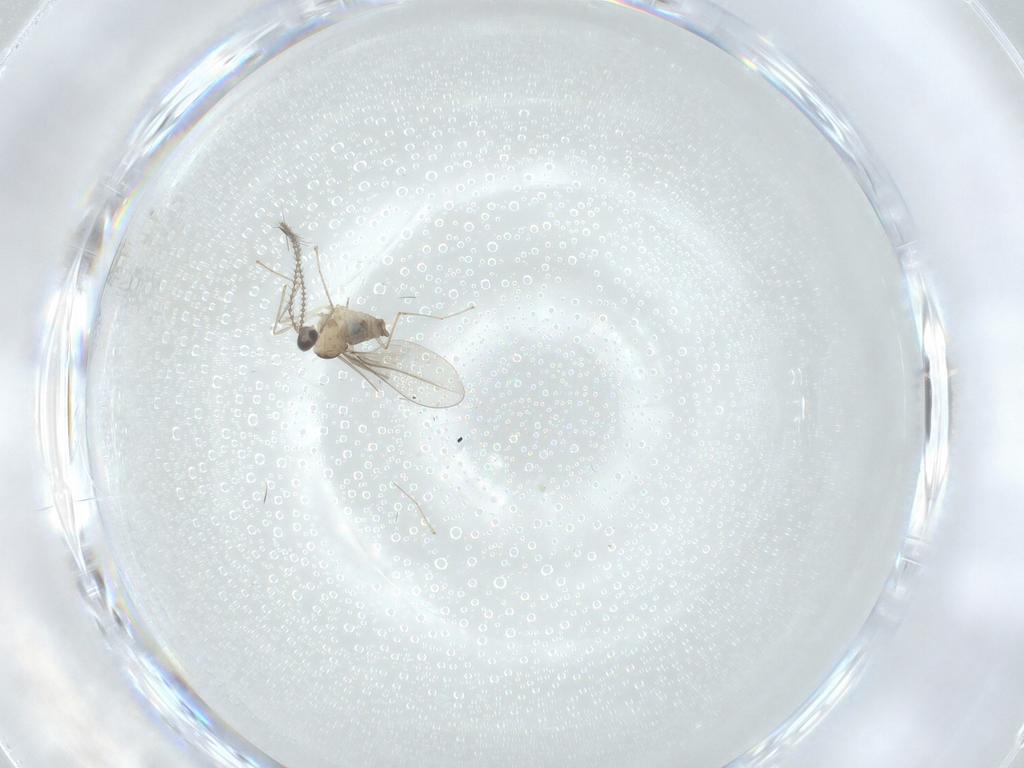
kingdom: Animalia
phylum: Arthropoda
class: Insecta
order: Diptera
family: Cecidomyiidae
